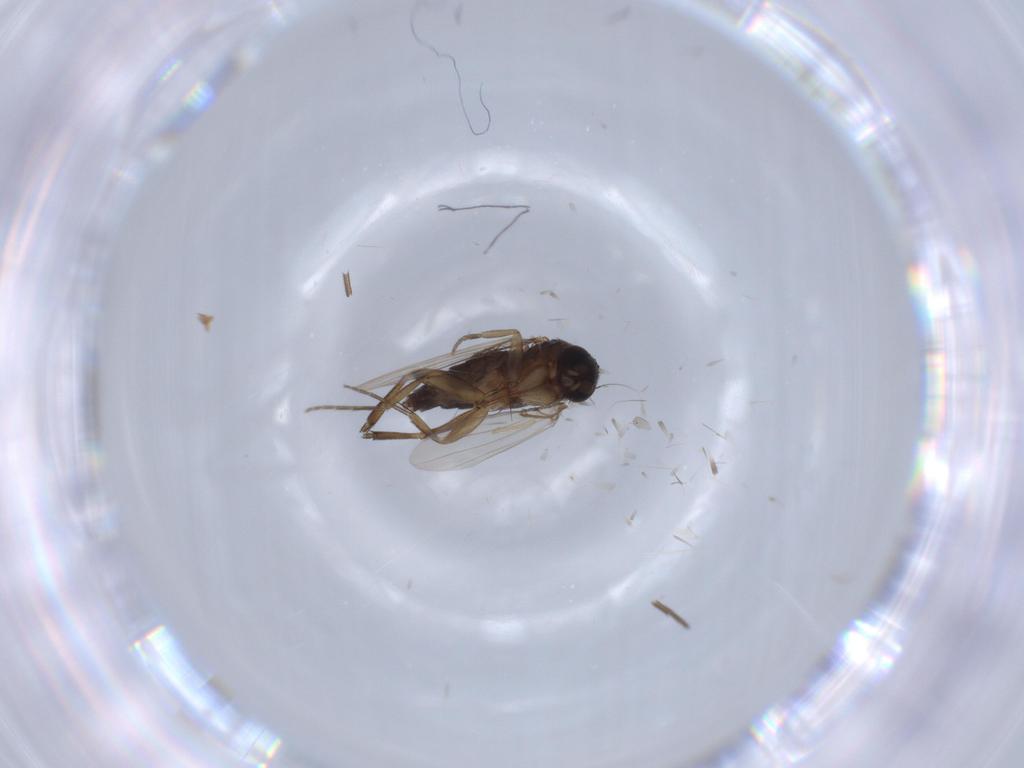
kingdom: Animalia
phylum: Arthropoda
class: Insecta
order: Diptera
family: Phoridae
